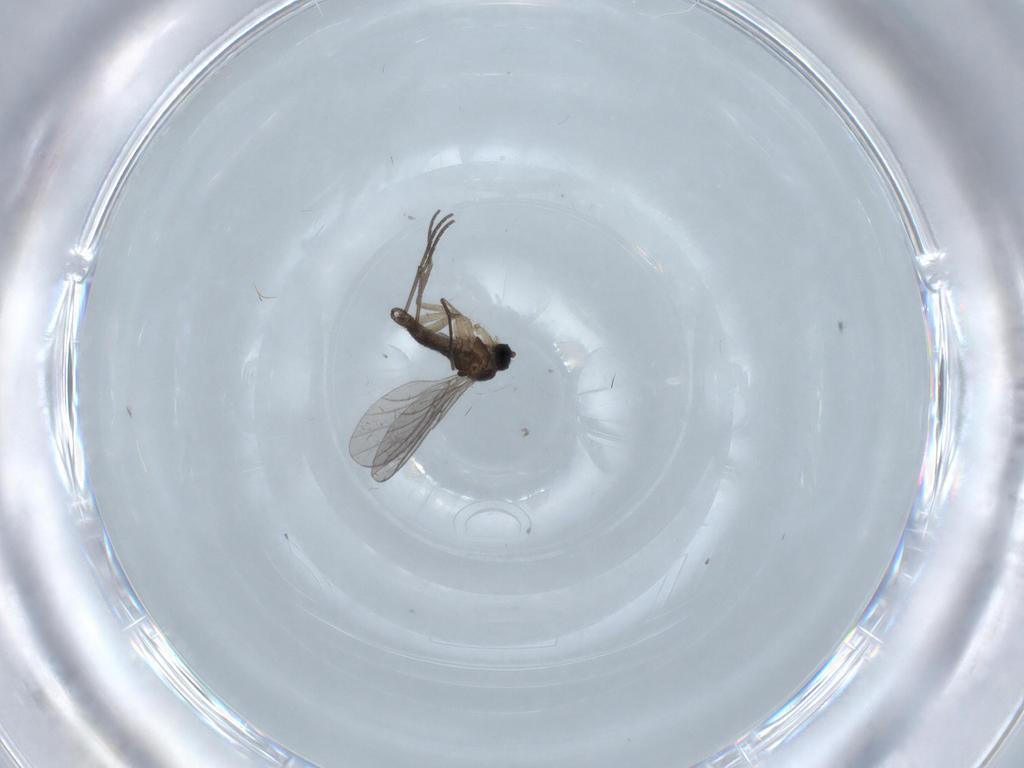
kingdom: Animalia
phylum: Arthropoda
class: Insecta
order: Diptera
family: Sciaridae
